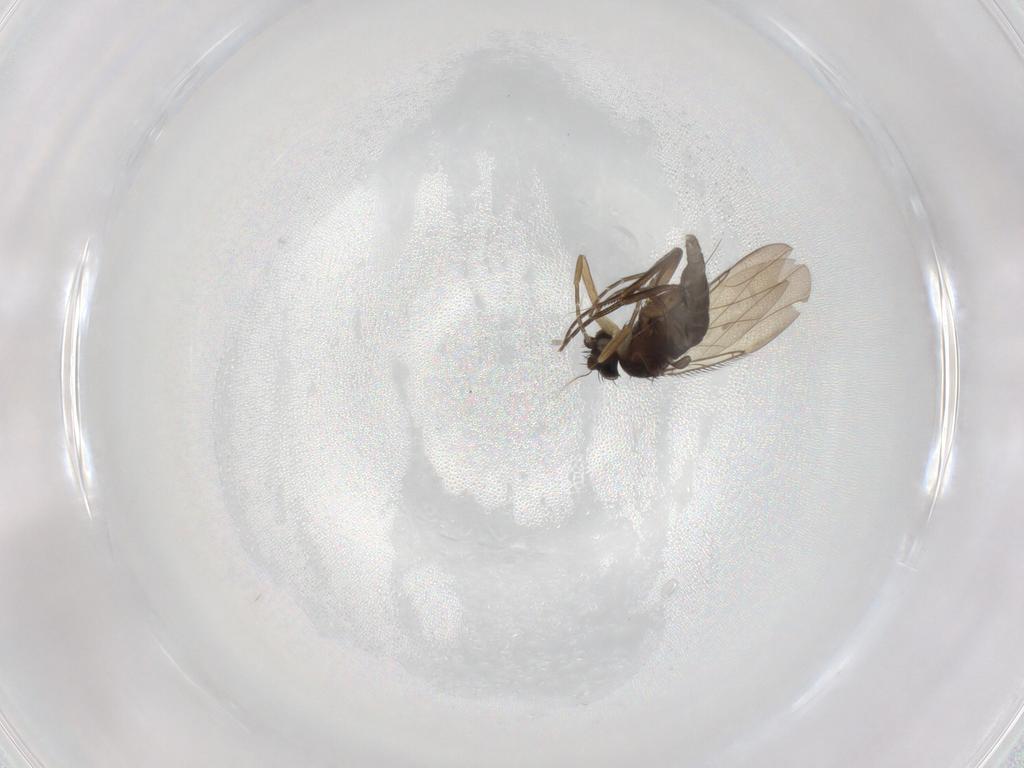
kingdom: Animalia
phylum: Arthropoda
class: Insecta
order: Diptera
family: Phoridae
